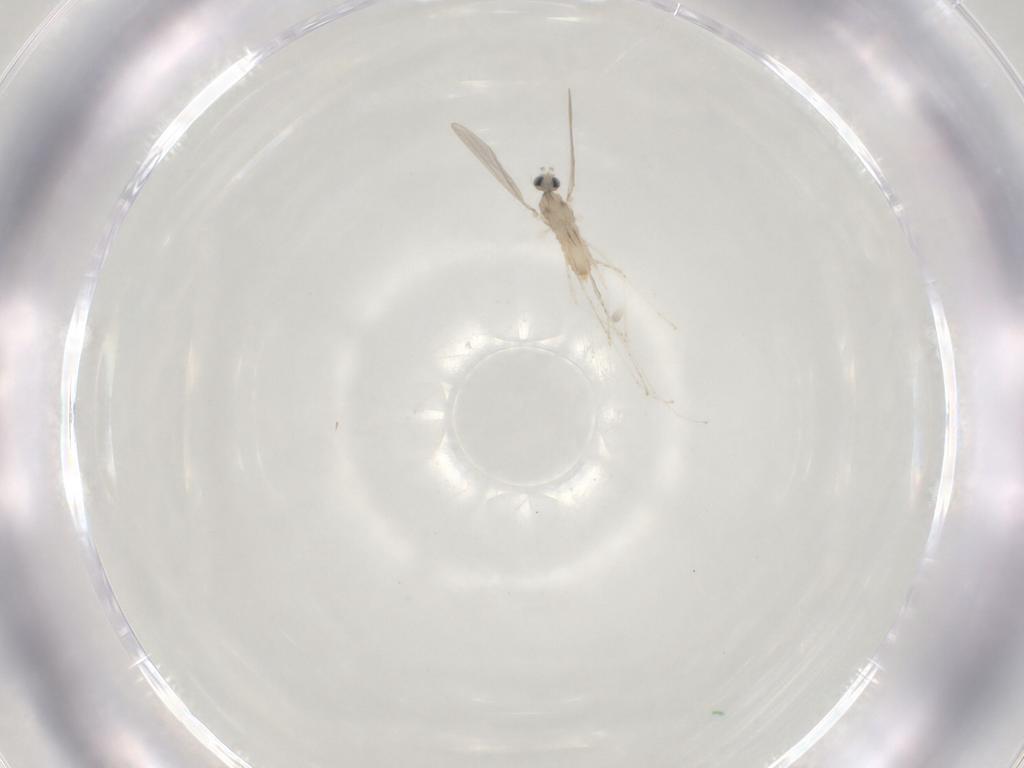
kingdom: Animalia
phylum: Arthropoda
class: Insecta
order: Diptera
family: Cecidomyiidae
